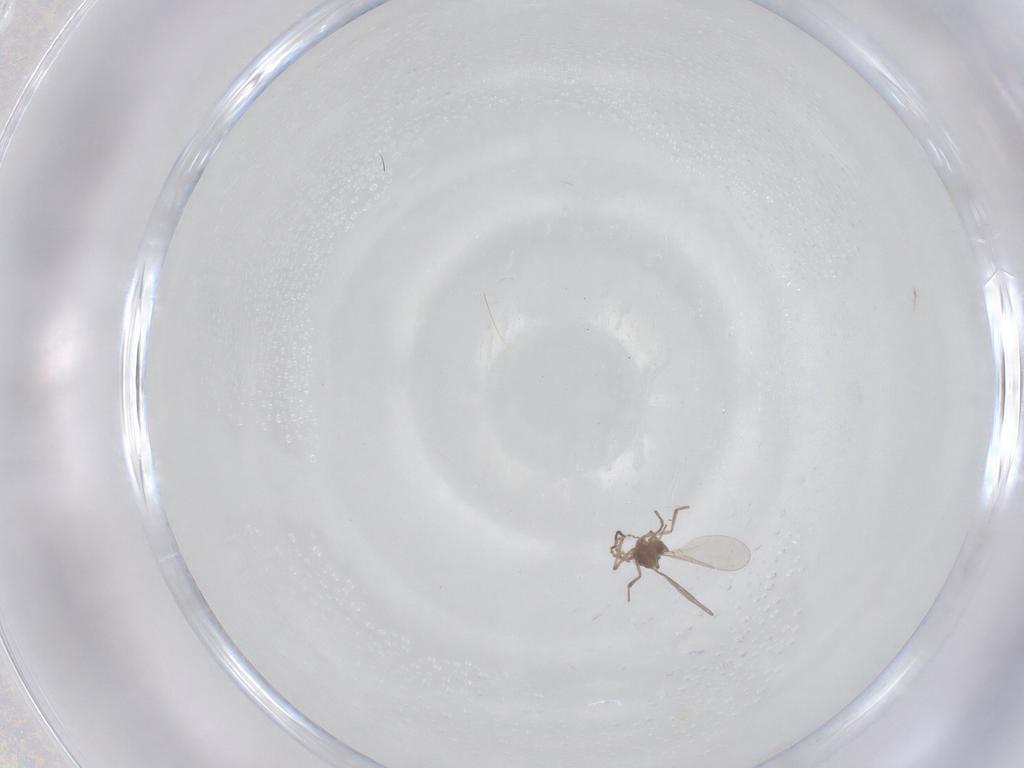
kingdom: Animalia
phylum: Arthropoda
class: Insecta
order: Diptera
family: Cecidomyiidae
